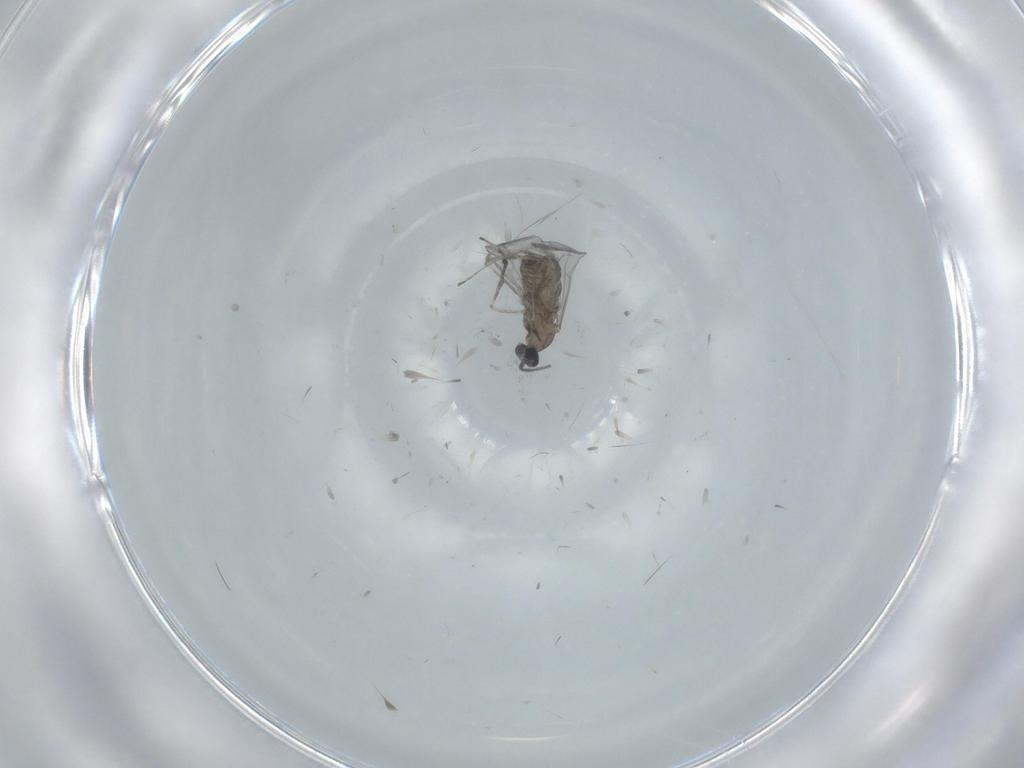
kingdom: Animalia
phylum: Arthropoda
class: Insecta
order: Diptera
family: Cecidomyiidae
